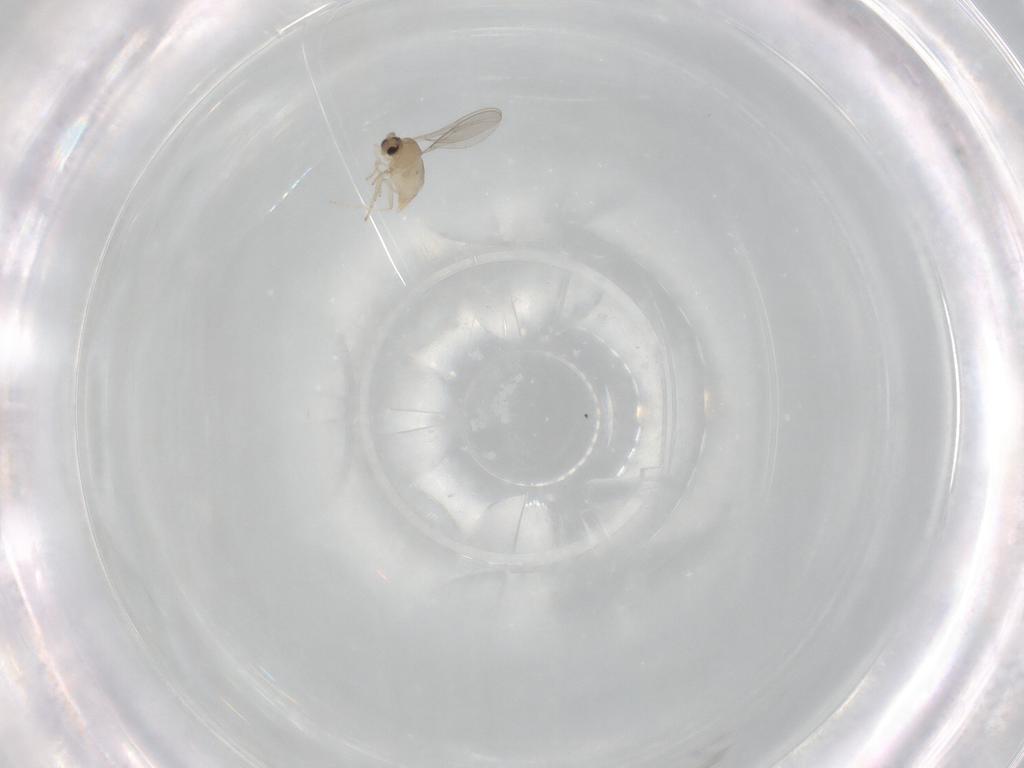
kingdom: Animalia
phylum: Arthropoda
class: Insecta
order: Diptera
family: Chironomidae
